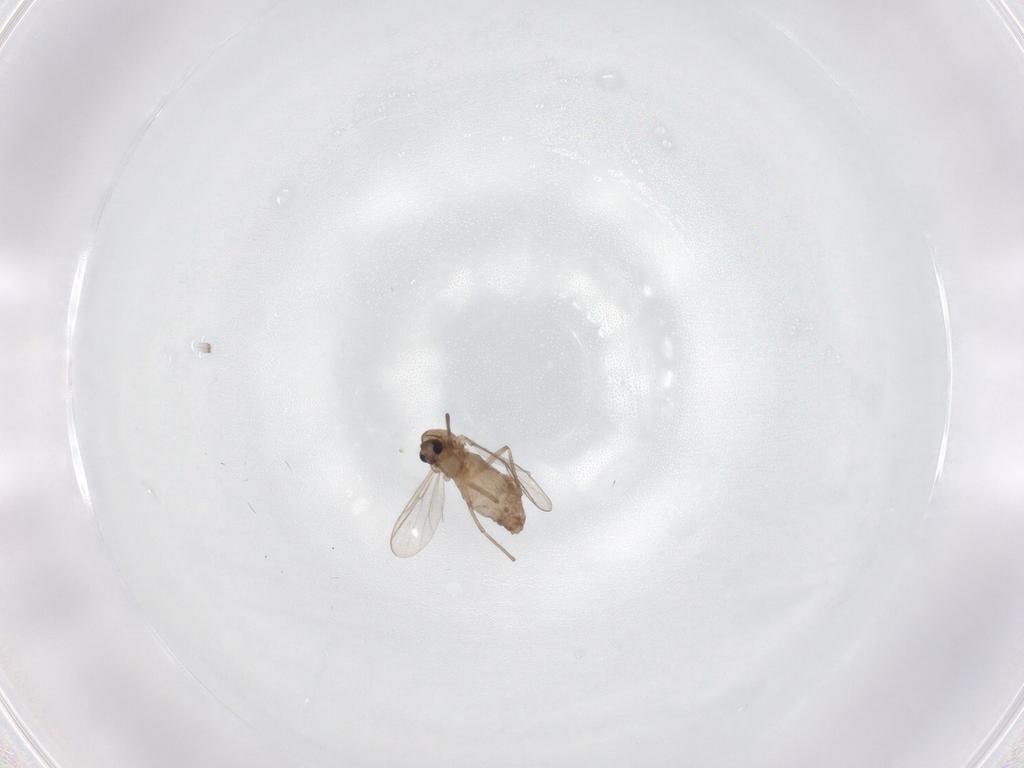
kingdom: Animalia
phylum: Arthropoda
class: Insecta
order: Diptera
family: Chironomidae
